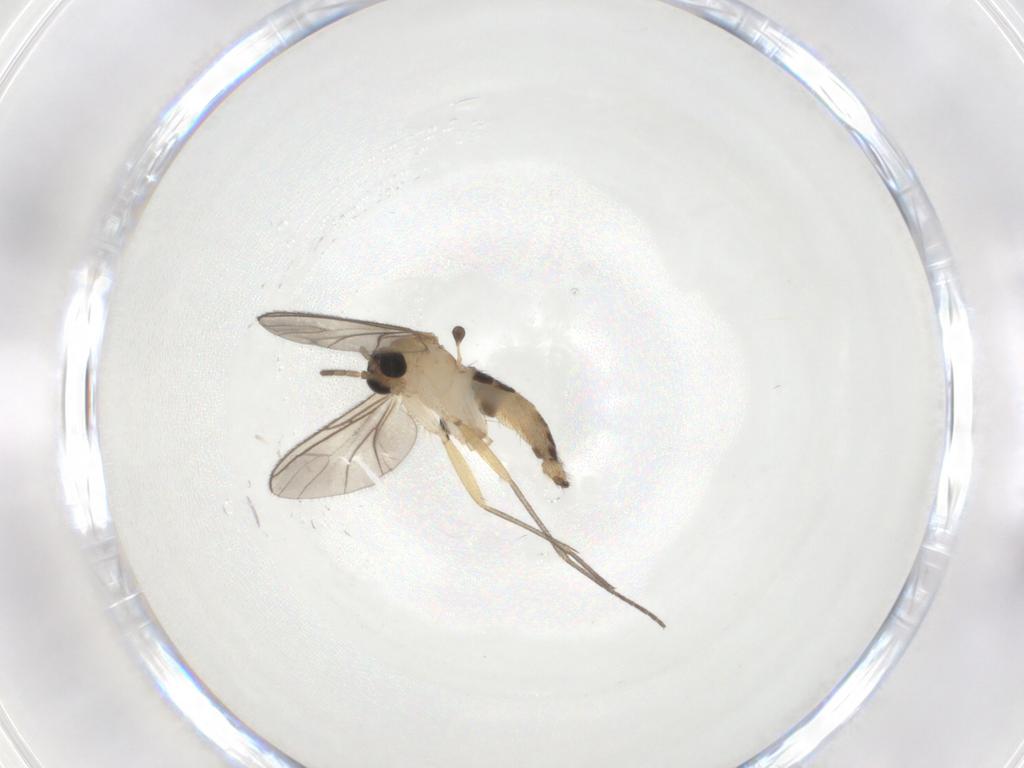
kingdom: Animalia
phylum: Arthropoda
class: Insecta
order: Diptera
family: Sciaridae
